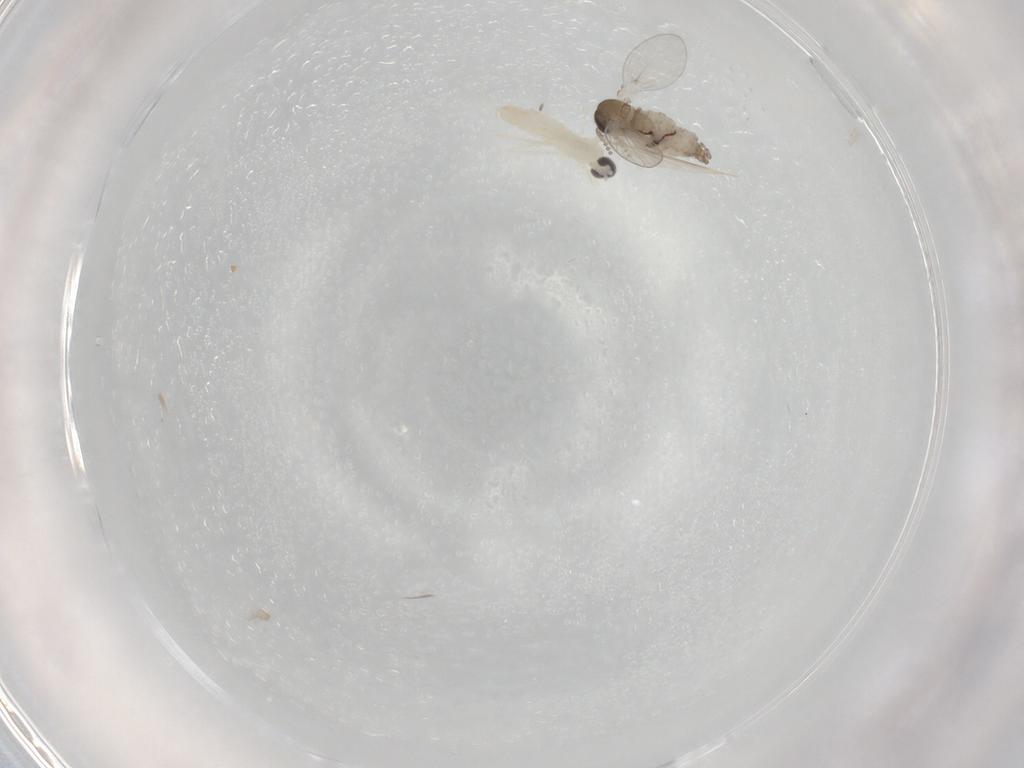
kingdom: Animalia
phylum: Arthropoda
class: Insecta
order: Diptera
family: Psychodidae
